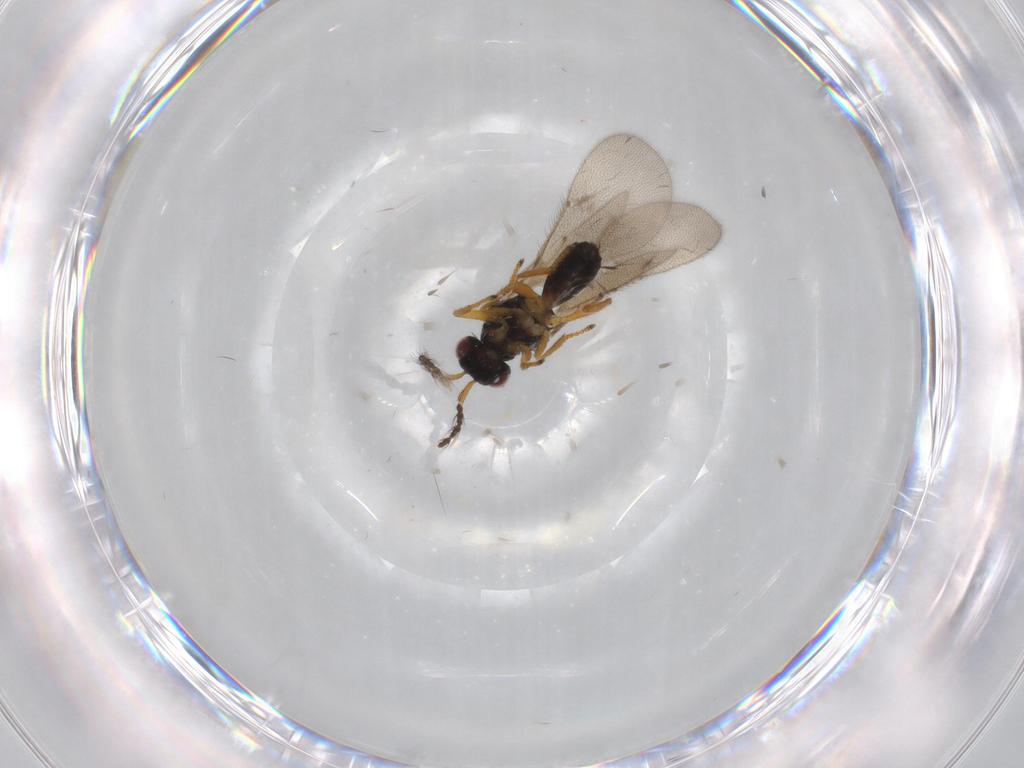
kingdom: Animalia
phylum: Arthropoda
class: Insecta
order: Hymenoptera
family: Eulophidae
